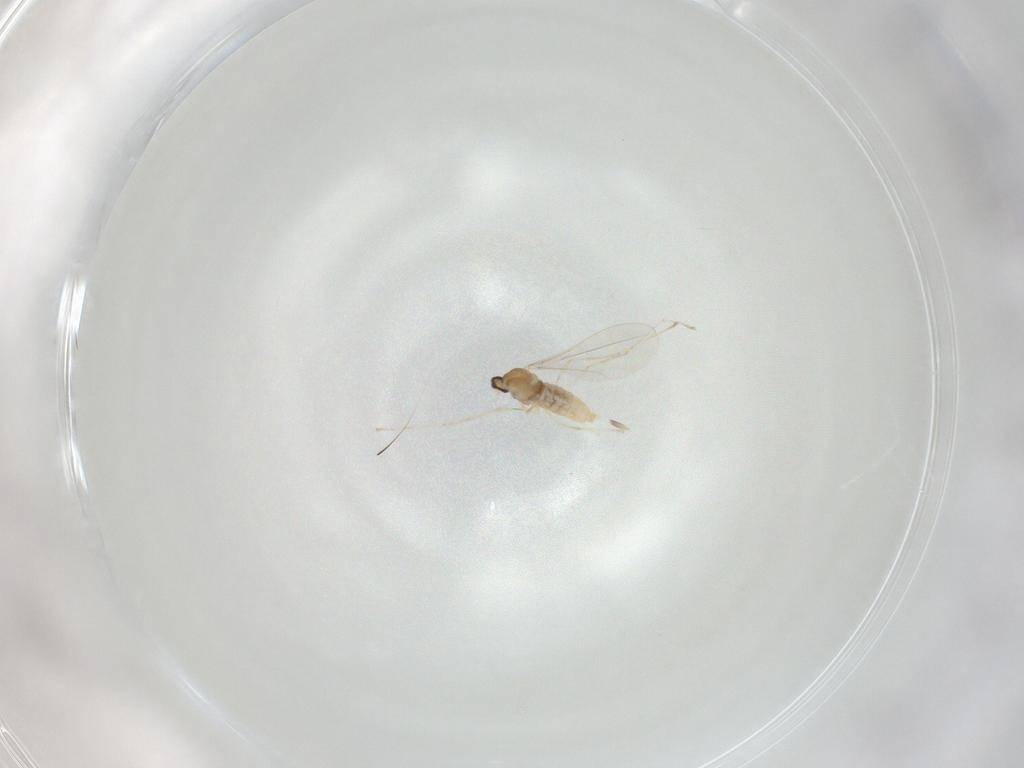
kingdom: Animalia
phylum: Arthropoda
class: Insecta
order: Diptera
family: Cecidomyiidae
